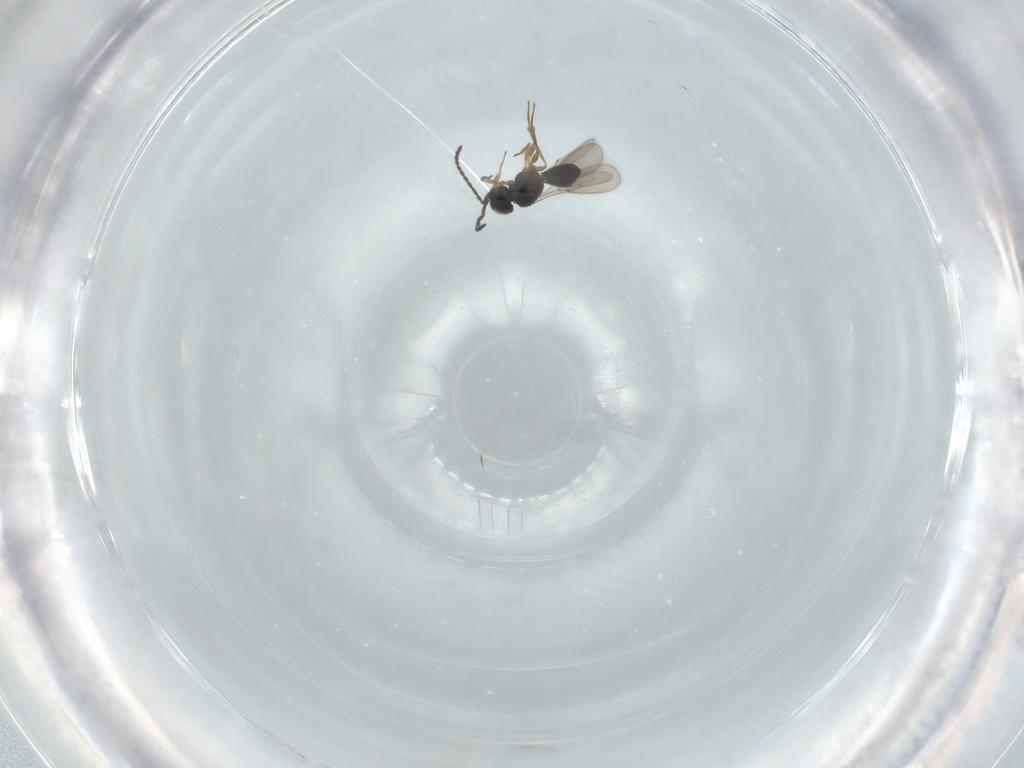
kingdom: Animalia
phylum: Arthropoda
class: Insecta
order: Hymenoptera
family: Scelionidae
